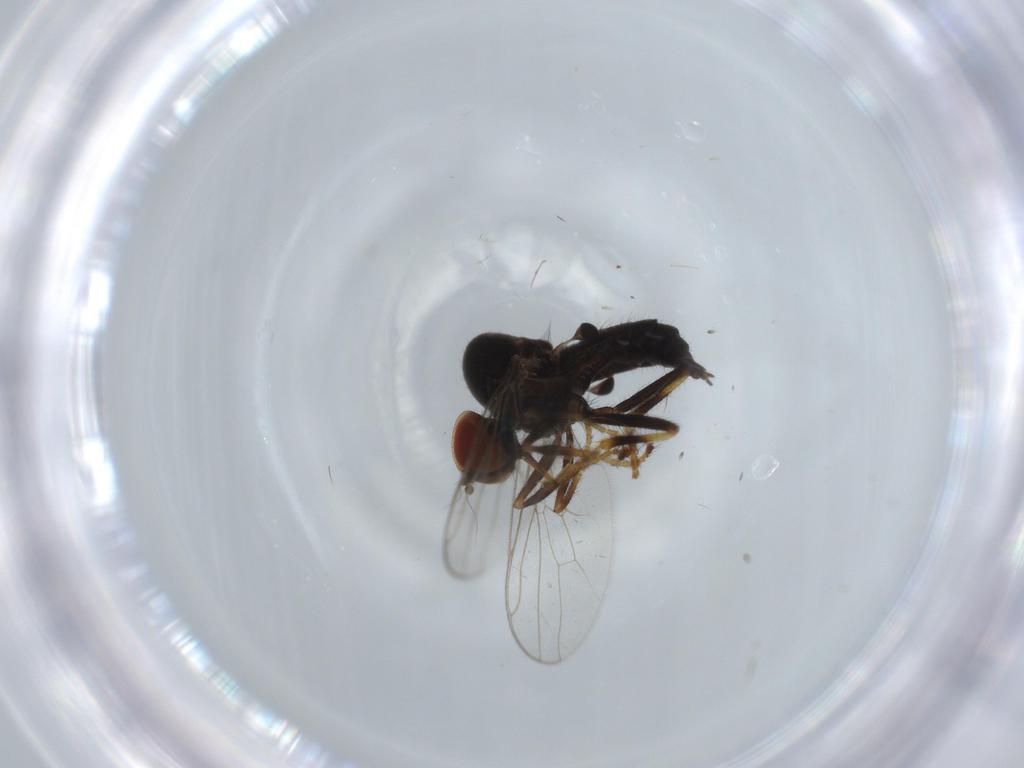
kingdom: Animalia
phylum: Arthropoda
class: Insecta
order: Diptera
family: Hybotidae
